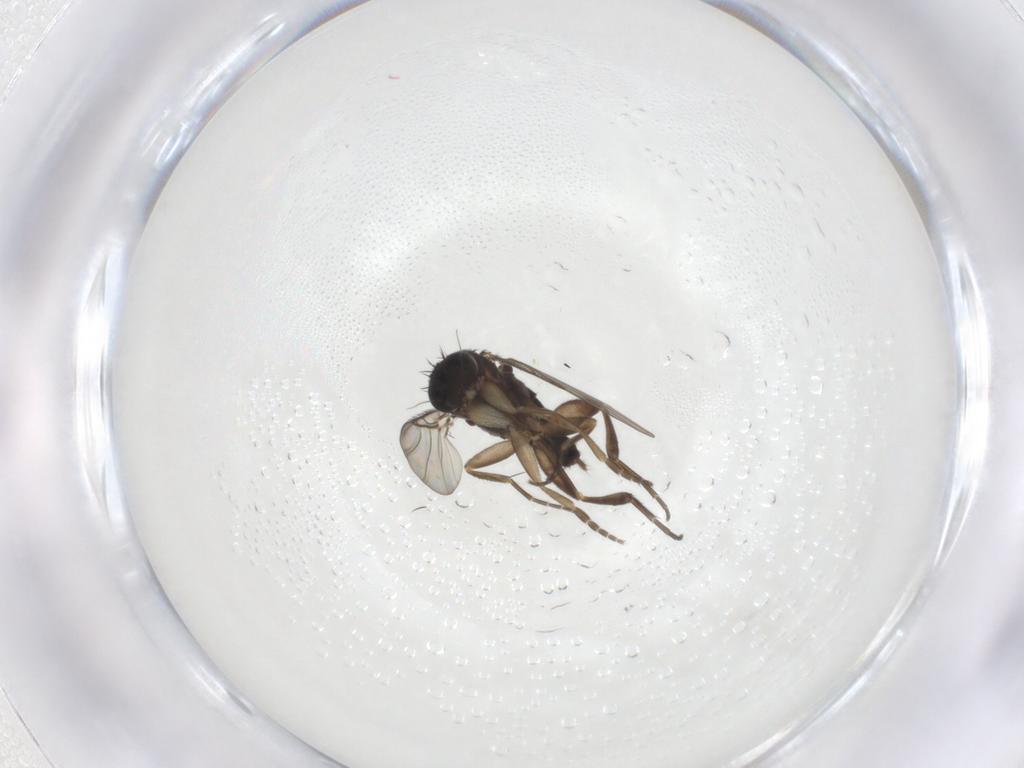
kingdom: Animalia
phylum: Arthropoda
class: Insecta
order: Diptera
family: Phoridae
